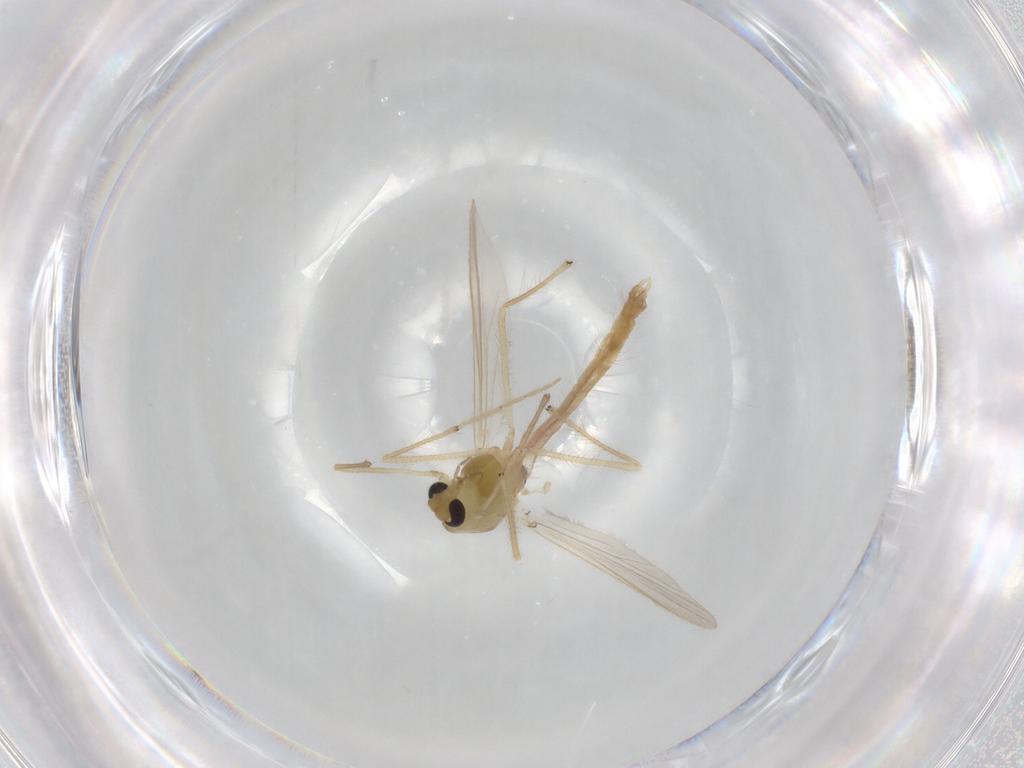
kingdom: Animalia
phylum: Arthropoda
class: Insecta
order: Diptera
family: Chironomidae
